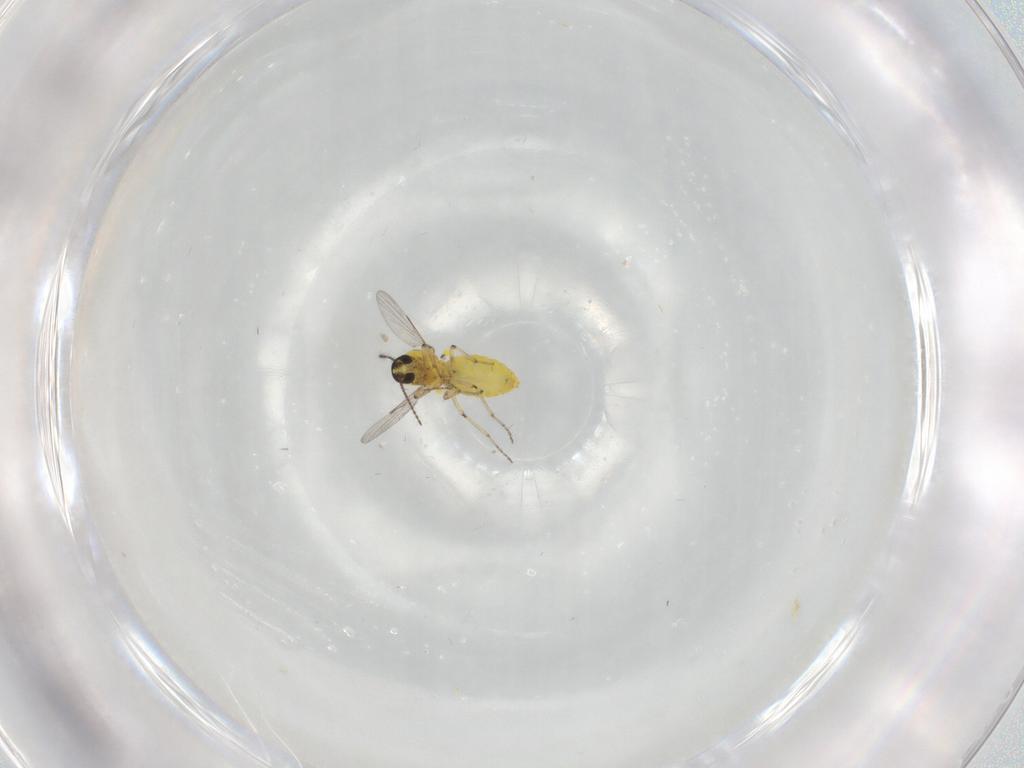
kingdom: Animalia
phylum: Arthropoda
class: Insecta
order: Diptera
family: Ceratopogonidae
